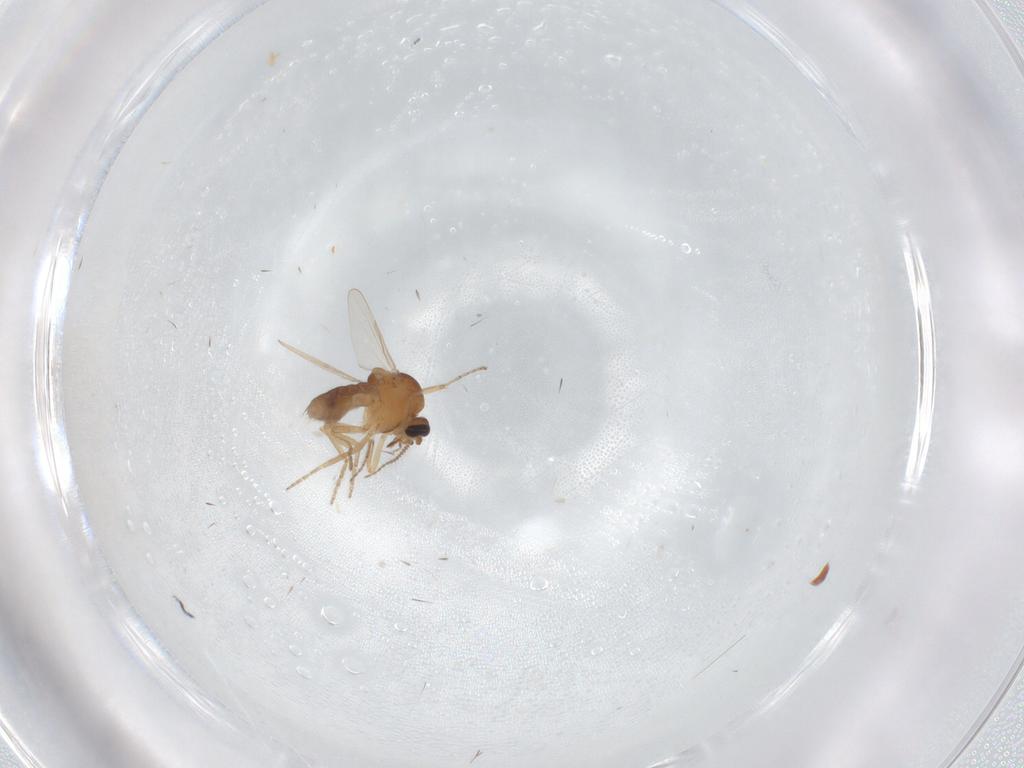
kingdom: Animalia
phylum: Arthropoda
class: Insecta
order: Diptera
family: Ceratopogonidae
